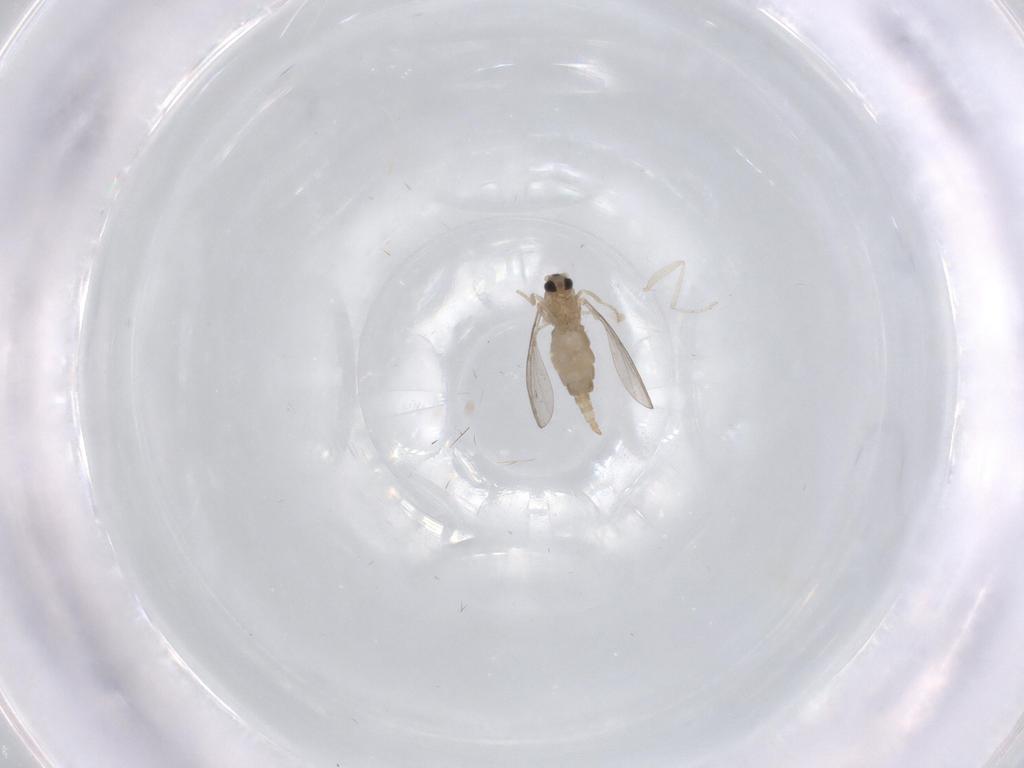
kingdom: Animalia
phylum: Arthropoda
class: Insecta
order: Diptera
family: Cecidomyiidae
